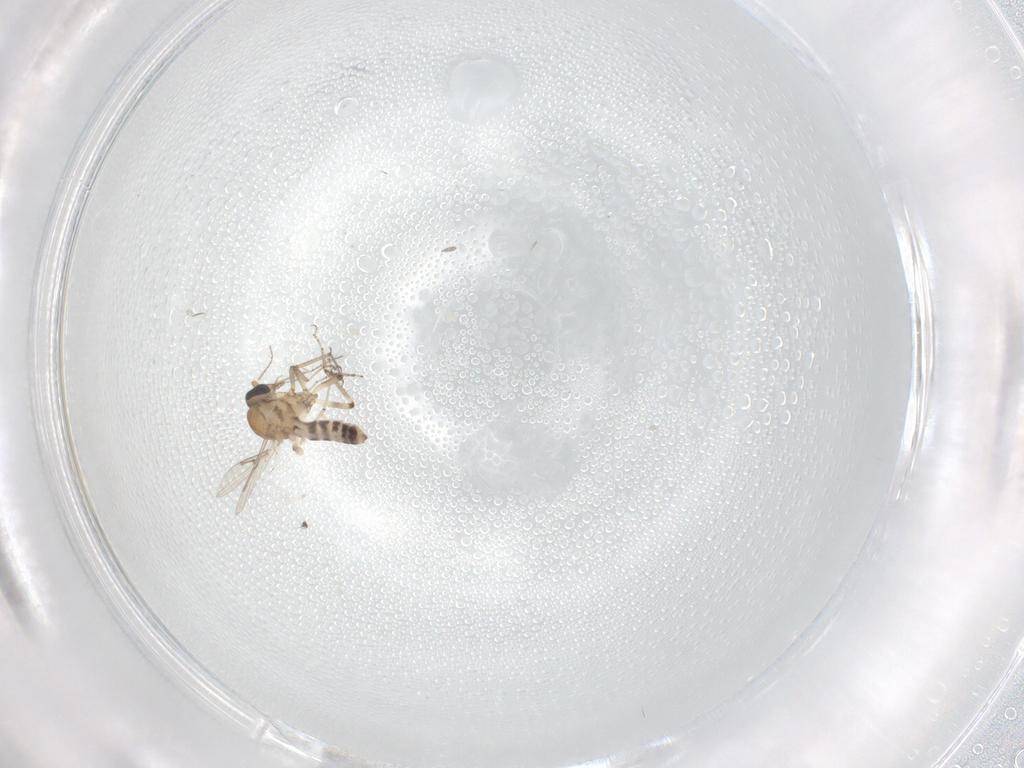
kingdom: Animalia
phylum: Arthropoda
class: Insecta
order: Diptera
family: Ceratopogonidae
